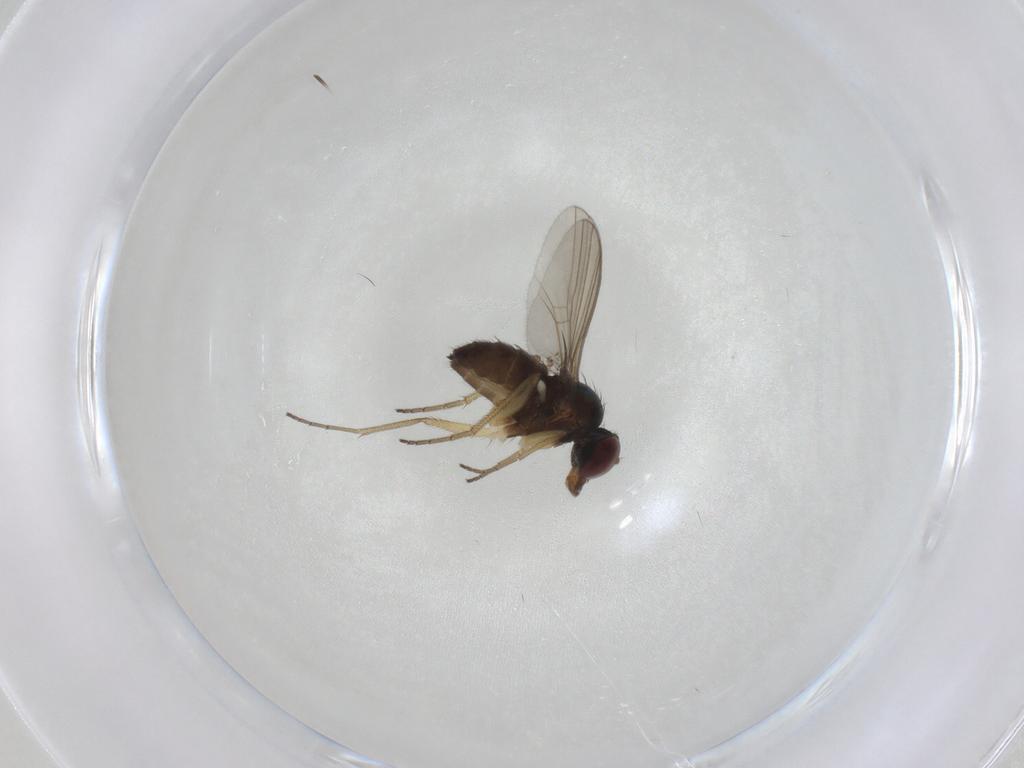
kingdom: Animalia
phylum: Arthropoda
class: Insecta
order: Diptera
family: Dolichopodidae
